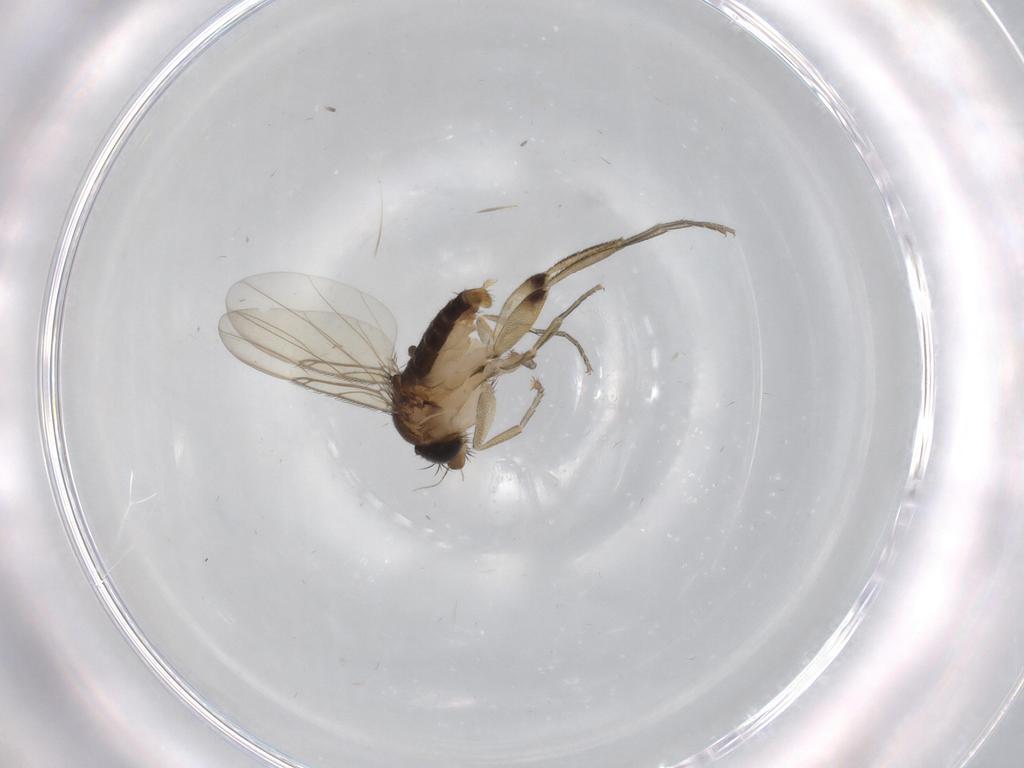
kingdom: Animalia
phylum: Arthropoda
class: Insecta
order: Diptera
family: Phoridae
